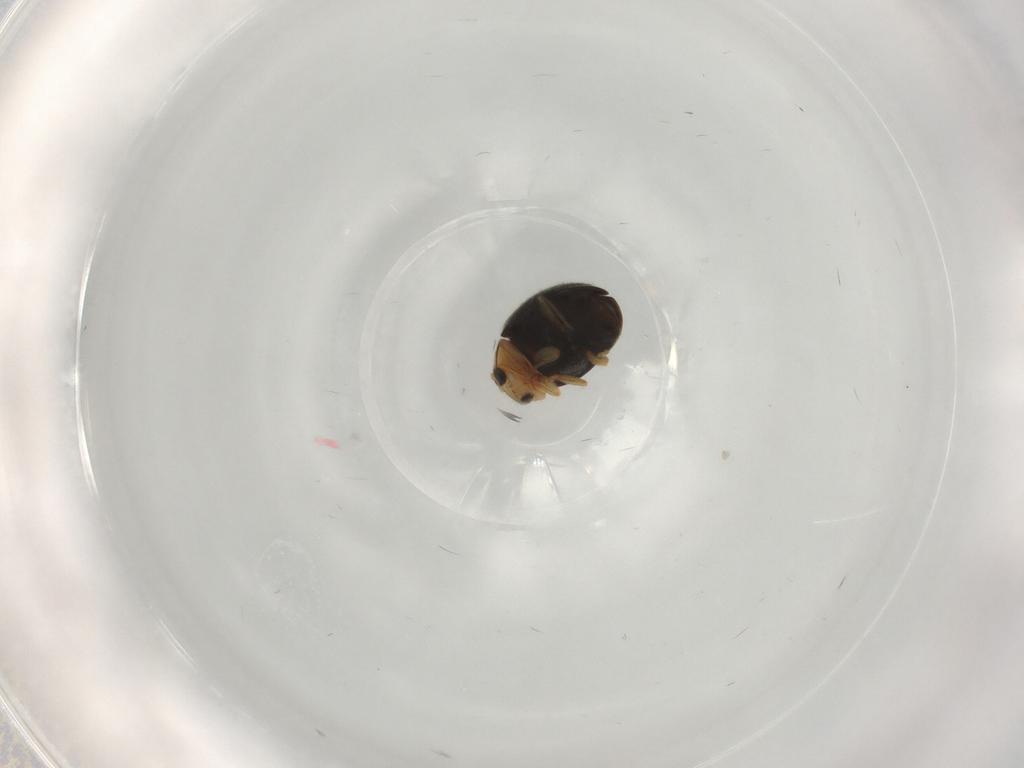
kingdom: Animalia
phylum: Arthropoda
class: Insecta
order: Coleoptera
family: Coccinellidae
